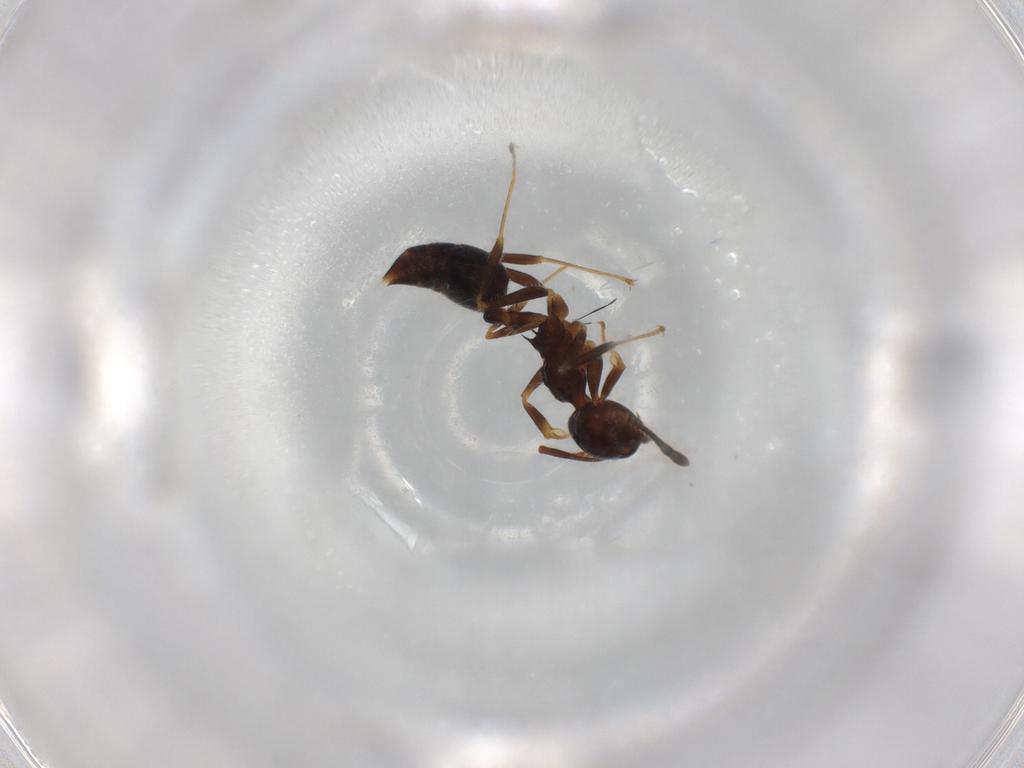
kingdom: Animalia
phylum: Arthropoda
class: Insecta
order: Hymenoptera
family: Formicidae
